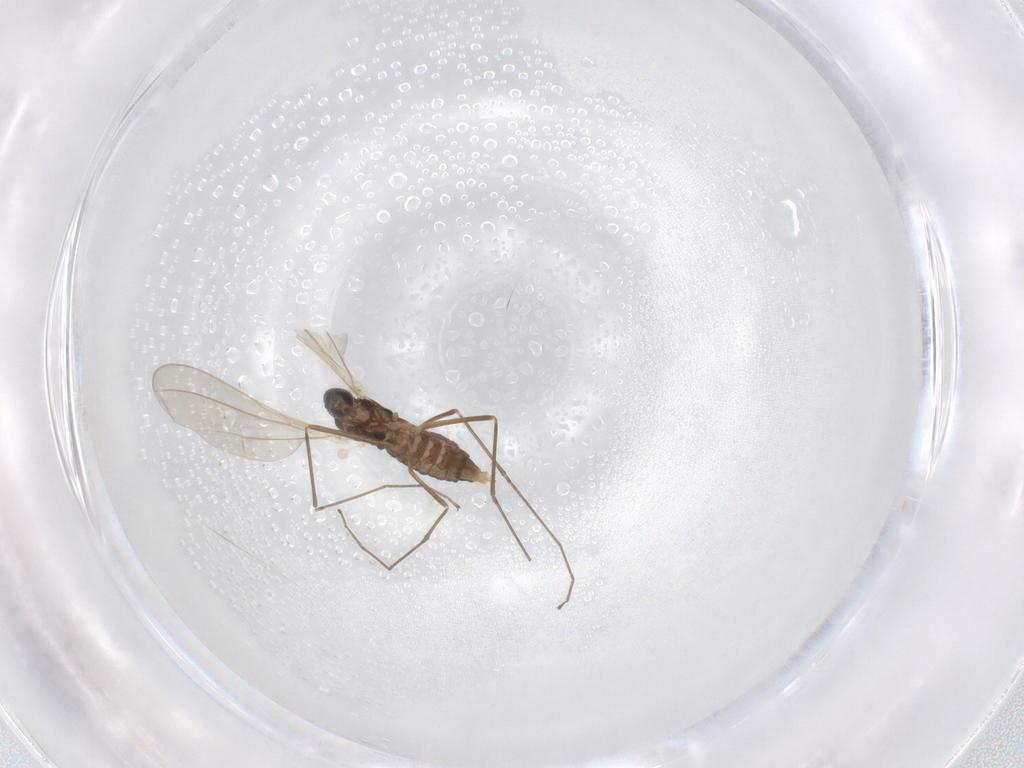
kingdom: Animalia
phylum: Arthropoda
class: Insecta
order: Diptera
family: Cecidomyiidae
